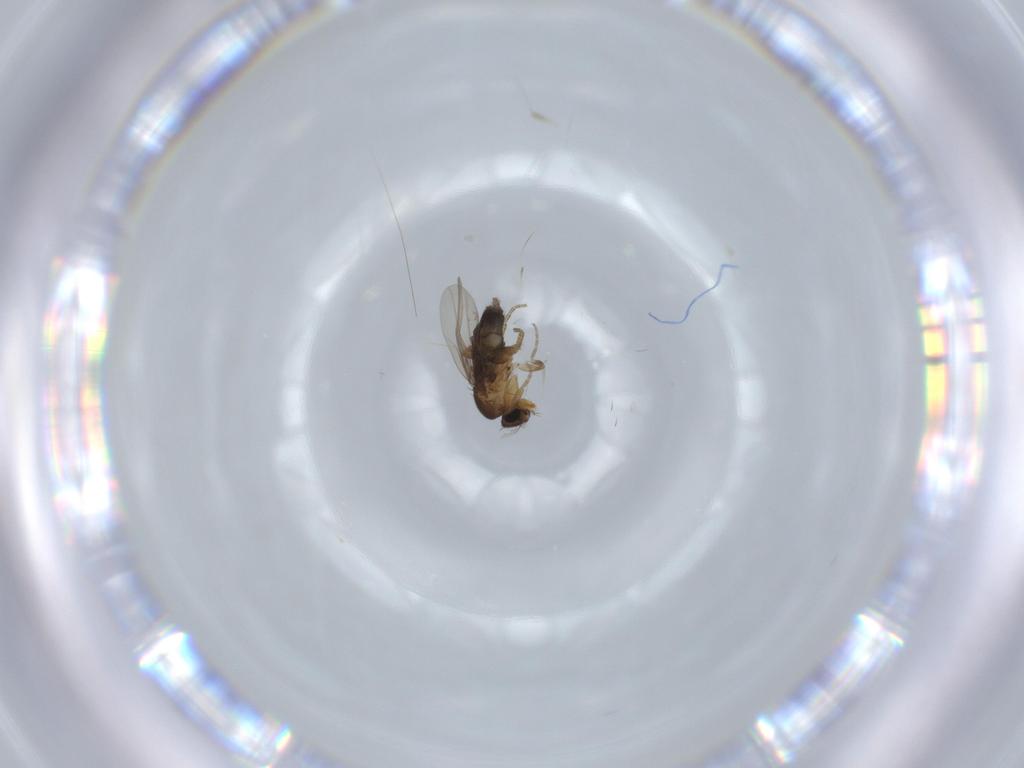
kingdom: Animalia
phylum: Arthropoda
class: Insecta
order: Diptera
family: Phoridae
